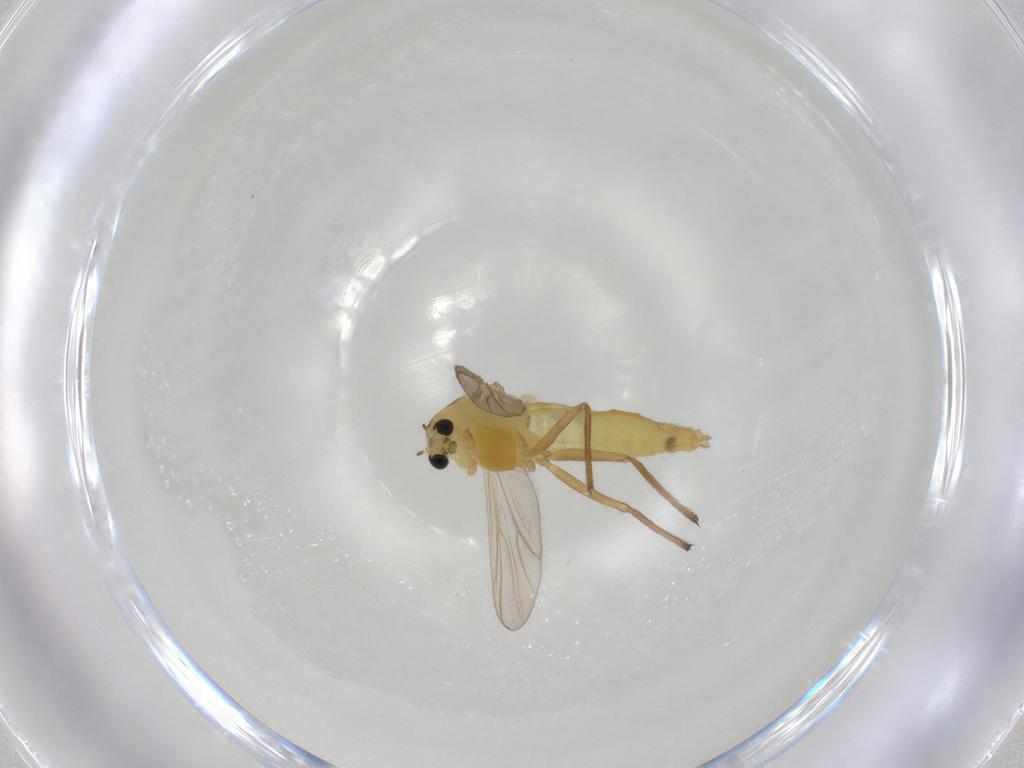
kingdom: Animalia
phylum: Arthropoda
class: Insecta
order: Diptera
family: Chironomidae
